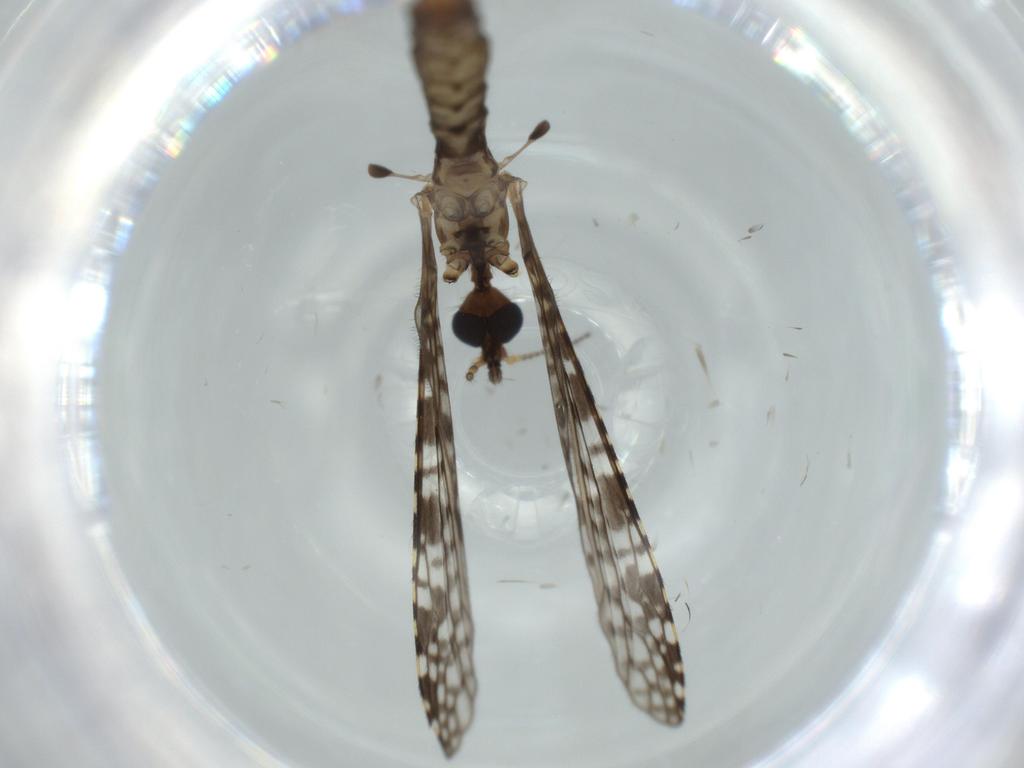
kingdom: Animalia
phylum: Arthropoda
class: Insecta
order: Diptera
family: Limoniidae
